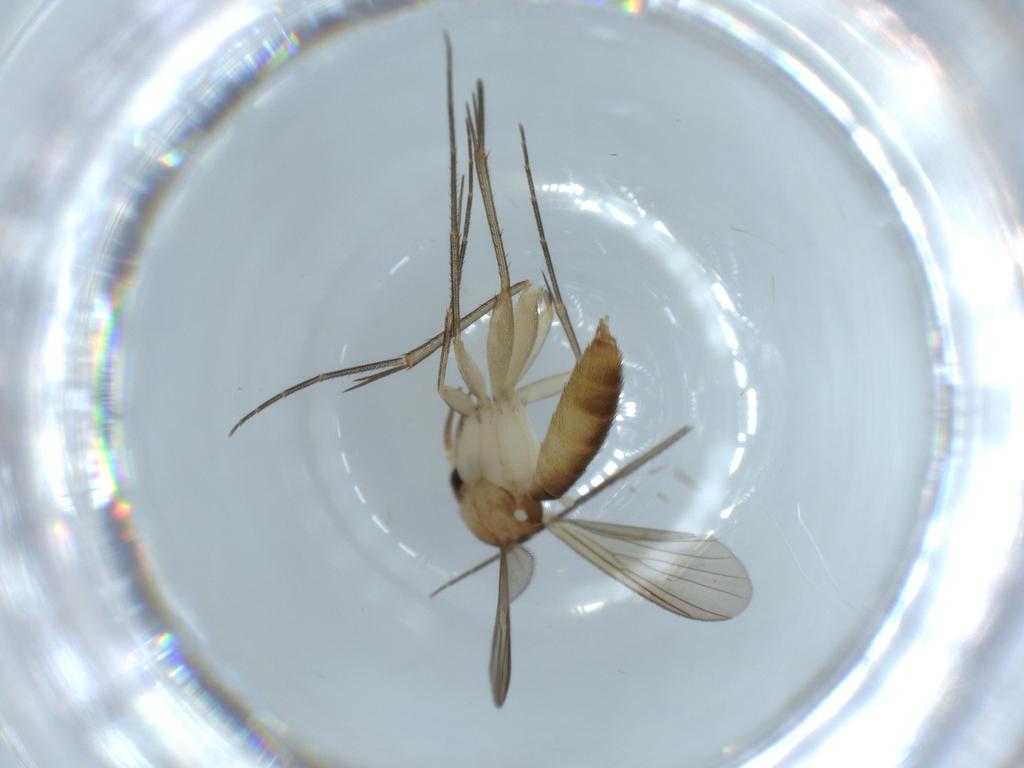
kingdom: Animalia
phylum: Arthropoda
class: Insecta
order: Diptera
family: Mycetophilidae
